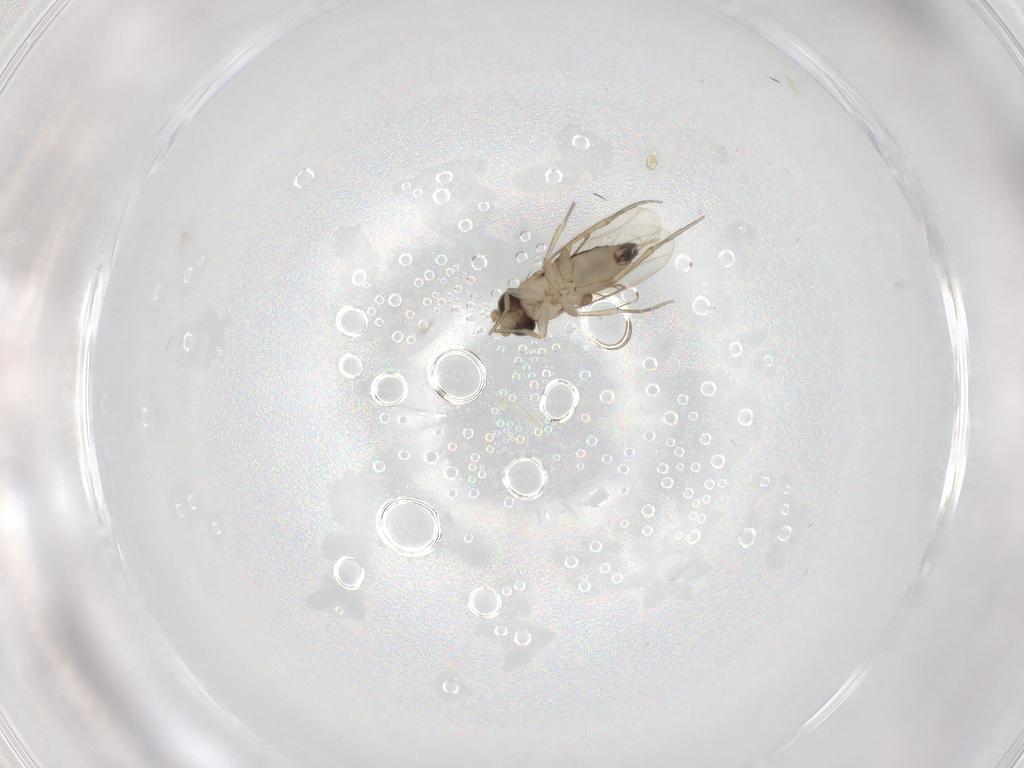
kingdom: Animalia
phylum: Arthropoda
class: Insecta
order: Diptera
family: Phoridae
